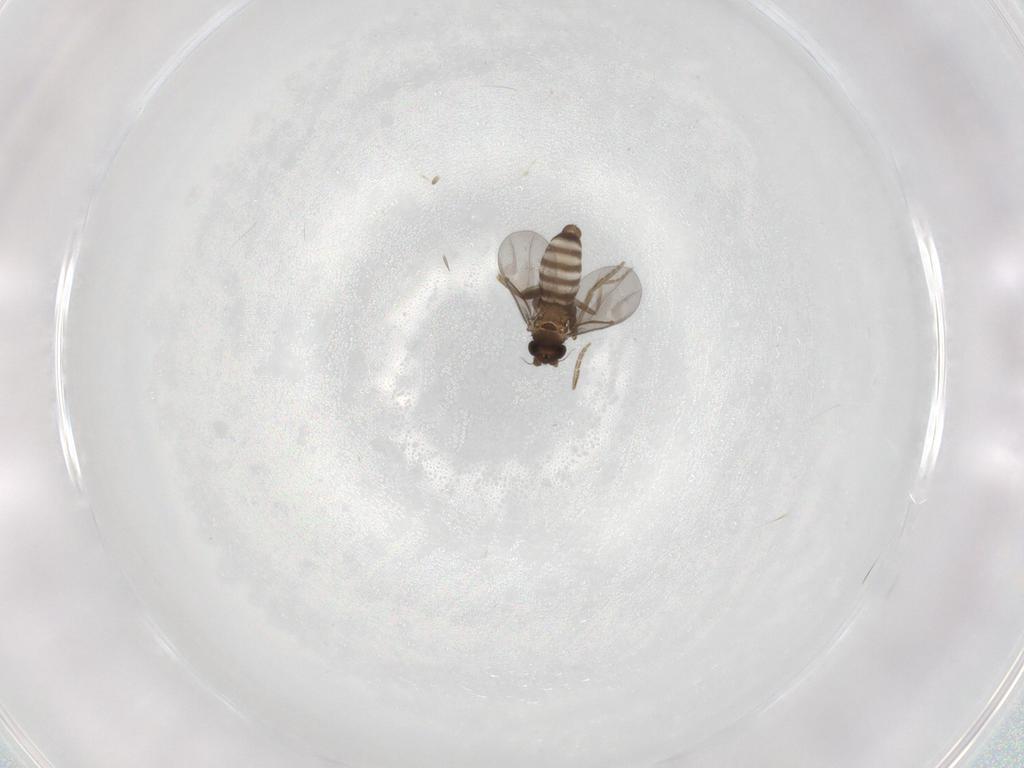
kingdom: Animalia
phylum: Arthropoda
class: Insecta
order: Diptera
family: Phoridae
